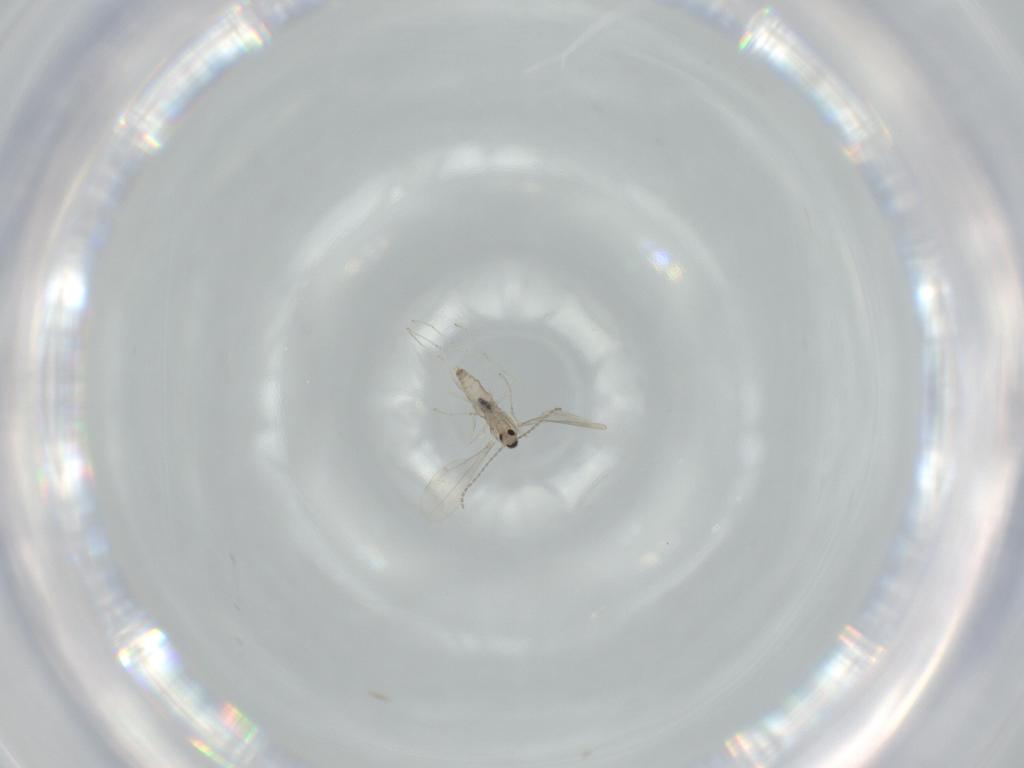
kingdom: Animalia
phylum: Arthropoda
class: Insecta
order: Diptera
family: Cecidomyiidae
